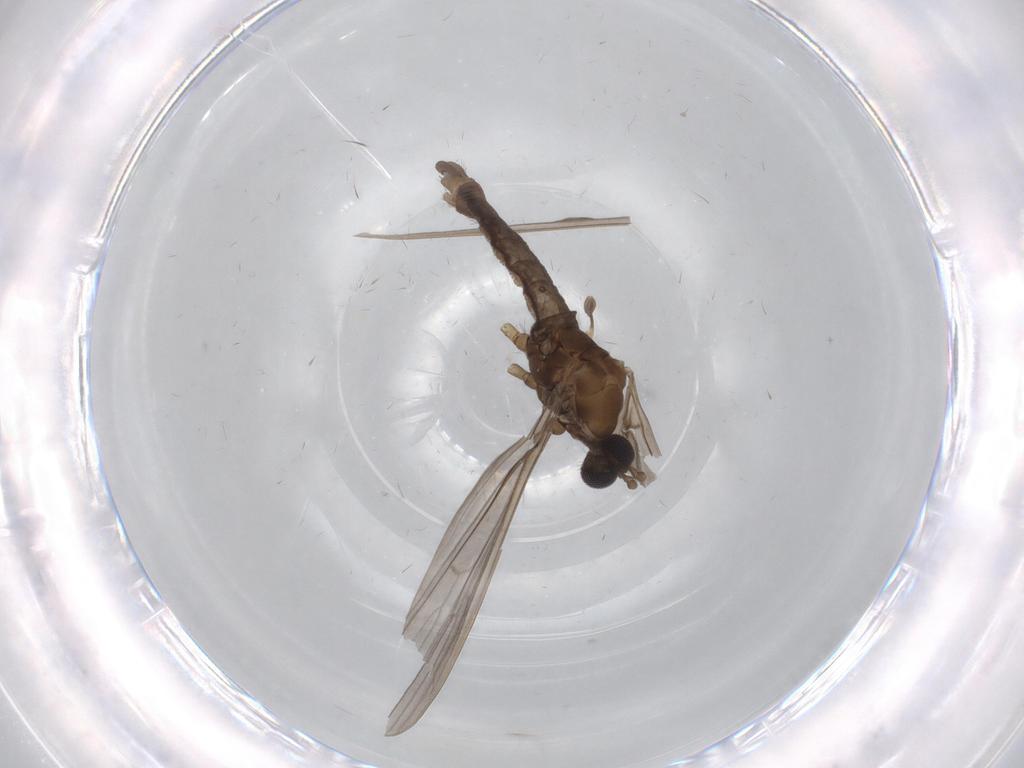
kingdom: Animalia
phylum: Arthropoda
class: Insecta
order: Diptera
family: Limoniidae
